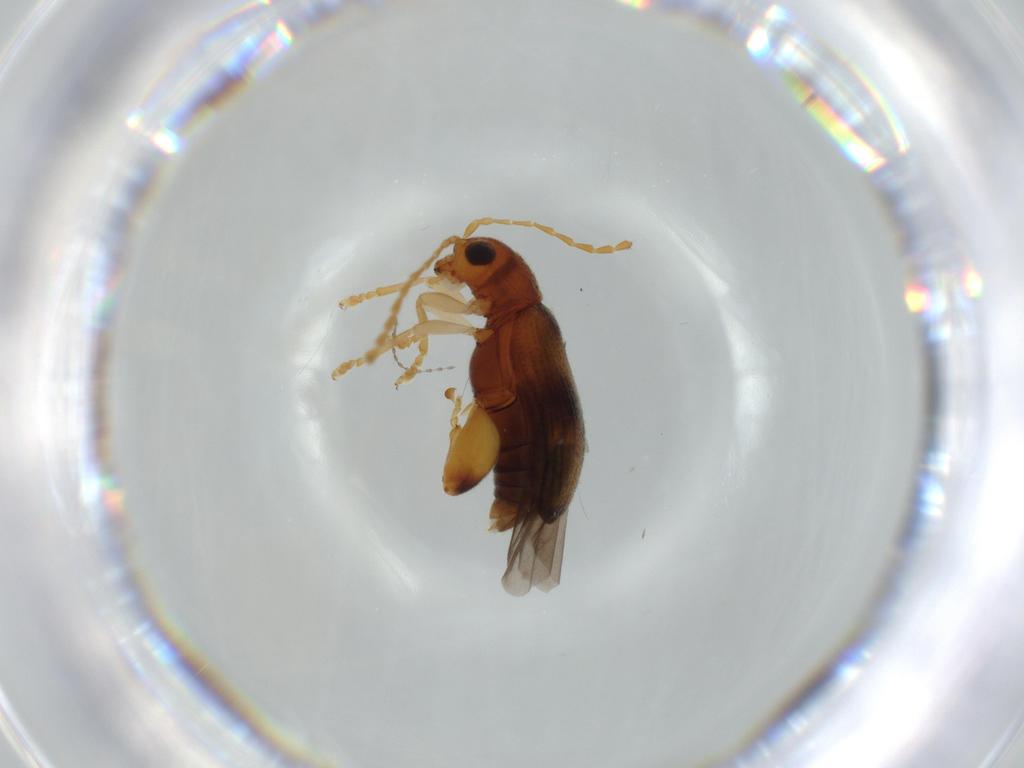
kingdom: Animalia
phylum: Arthropoda
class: Insecta
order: Coleoptera
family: Chrysomelidae
